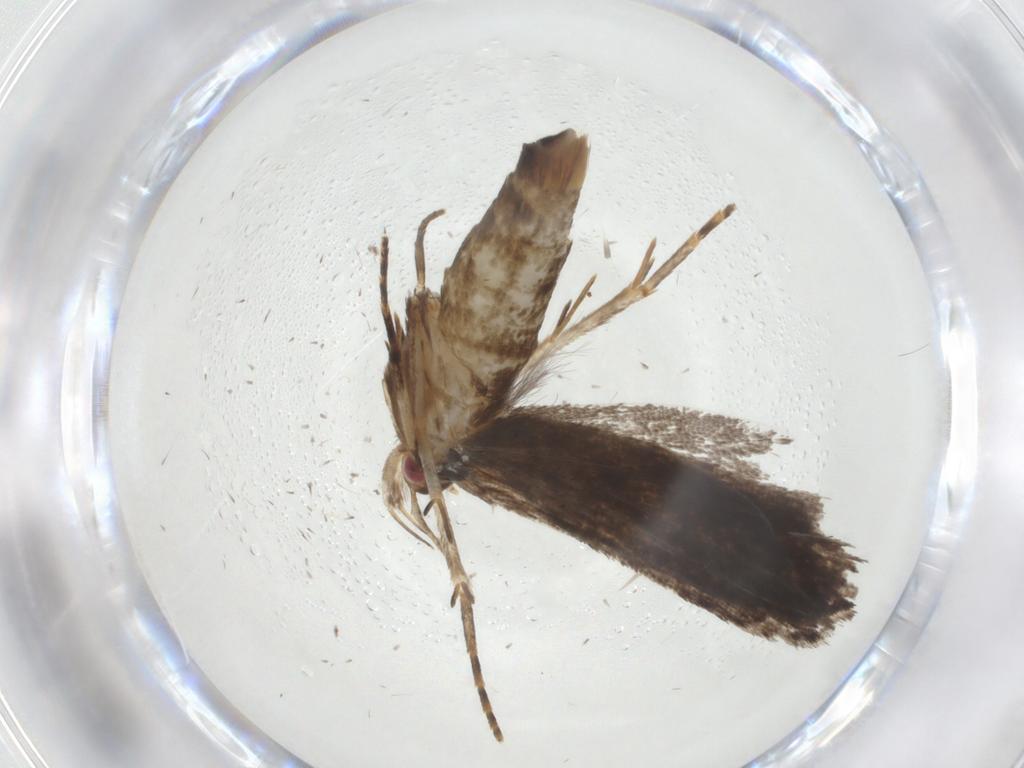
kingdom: Animalia
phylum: Arthropoda
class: Insecta
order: Lepidoptera
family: Gelechiidae
